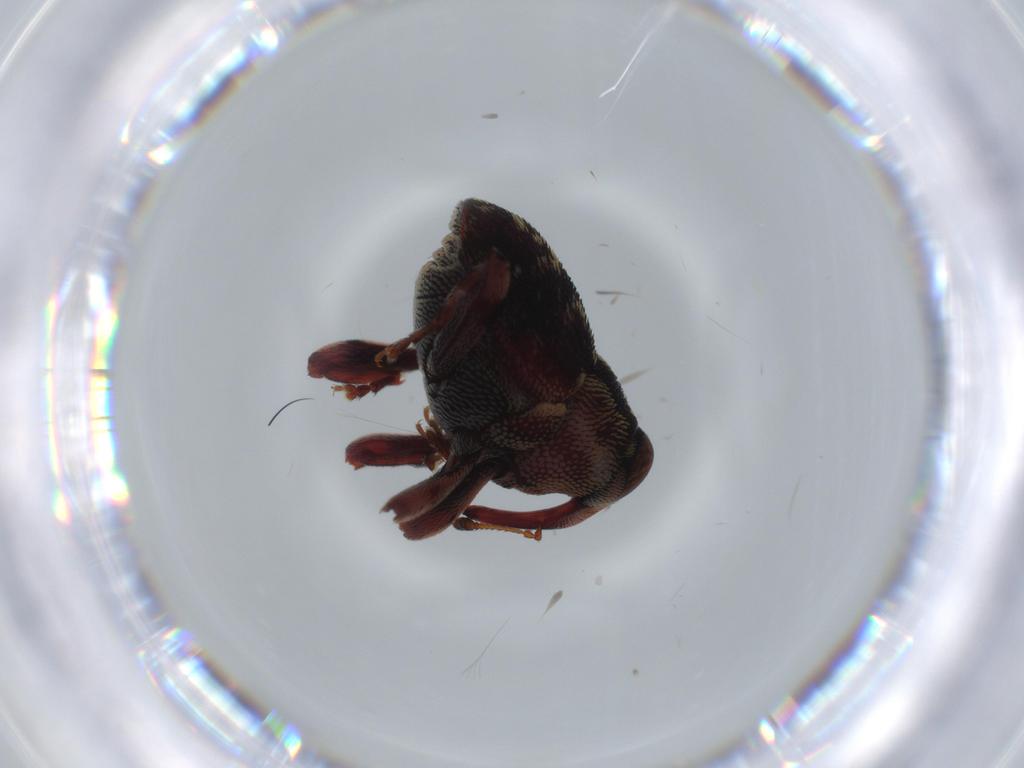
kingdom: Animalia
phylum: Arthropoda
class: Insecta
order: Coleoptera
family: Curculionidae
